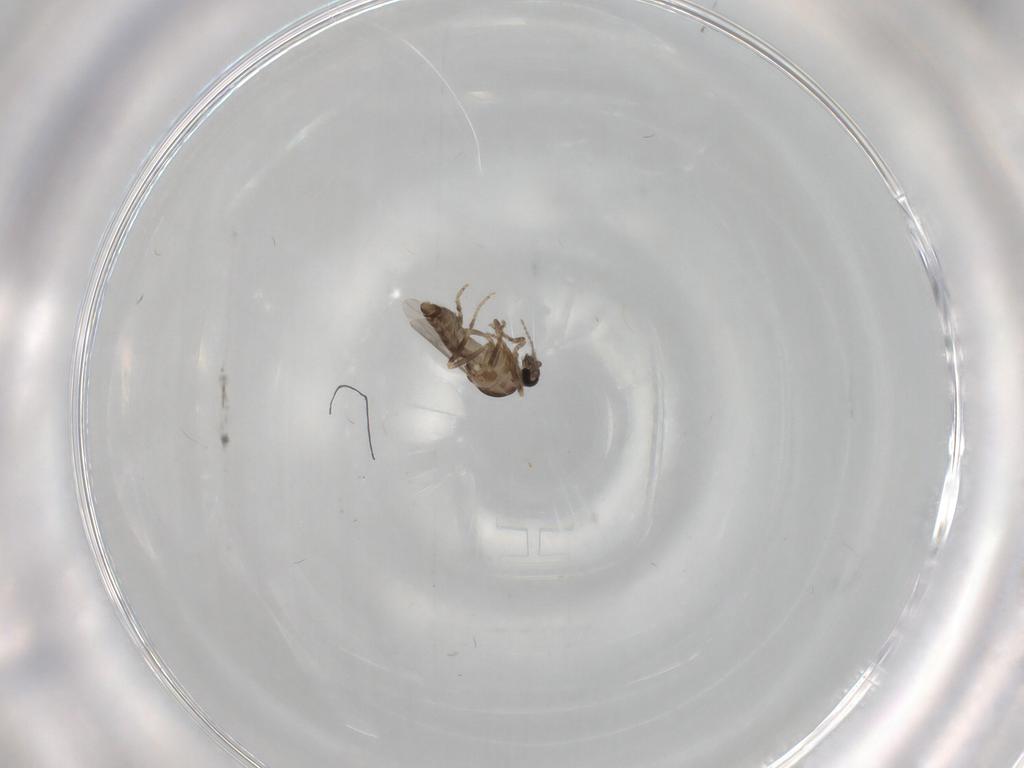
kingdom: Animalia
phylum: Arthropoda
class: Insecta
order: Diptera
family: Ceratopogonidae
